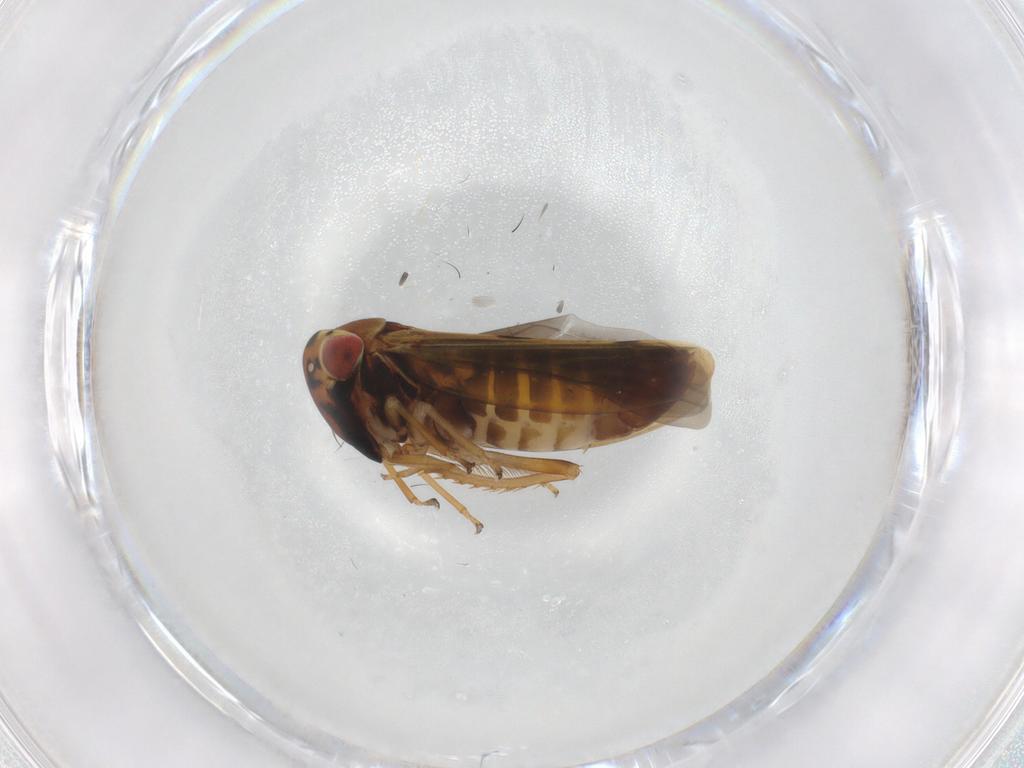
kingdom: Animalia
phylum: Arthropoda
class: Insecta
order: Hemiptera
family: Cicadellidae
